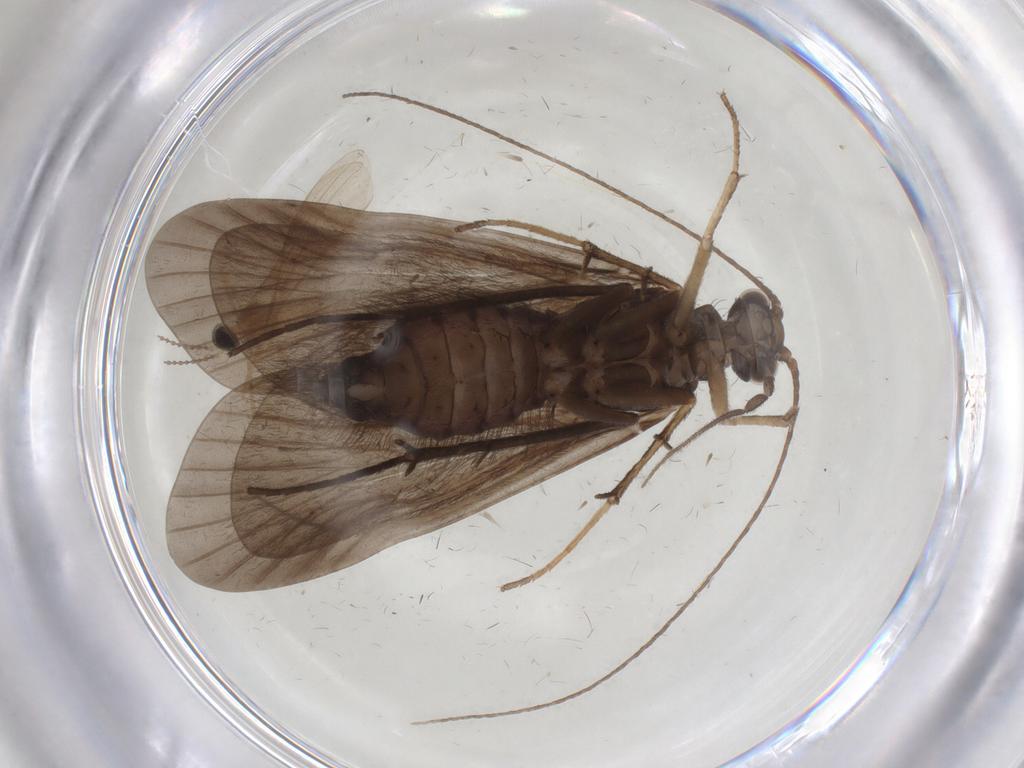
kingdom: Animalia
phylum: Arthropoda
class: Insecta
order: Trichoptera
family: Hydropsychidae
